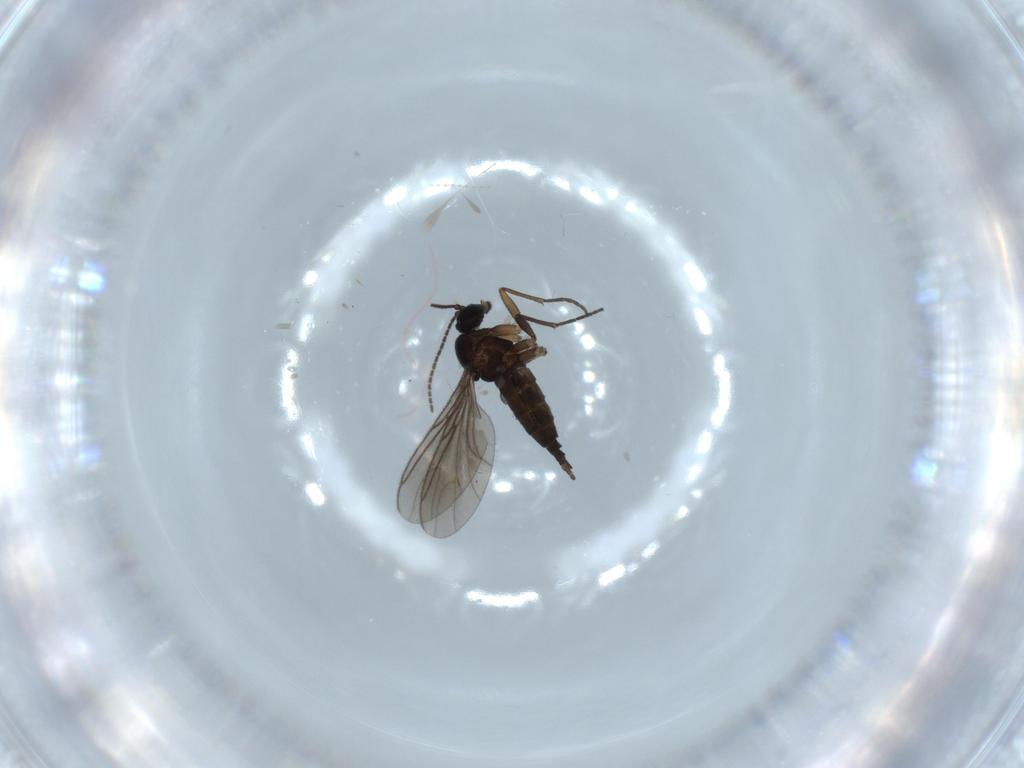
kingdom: Animalia
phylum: Arthropoda
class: Insecta
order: Diptera
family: Sciaridae
